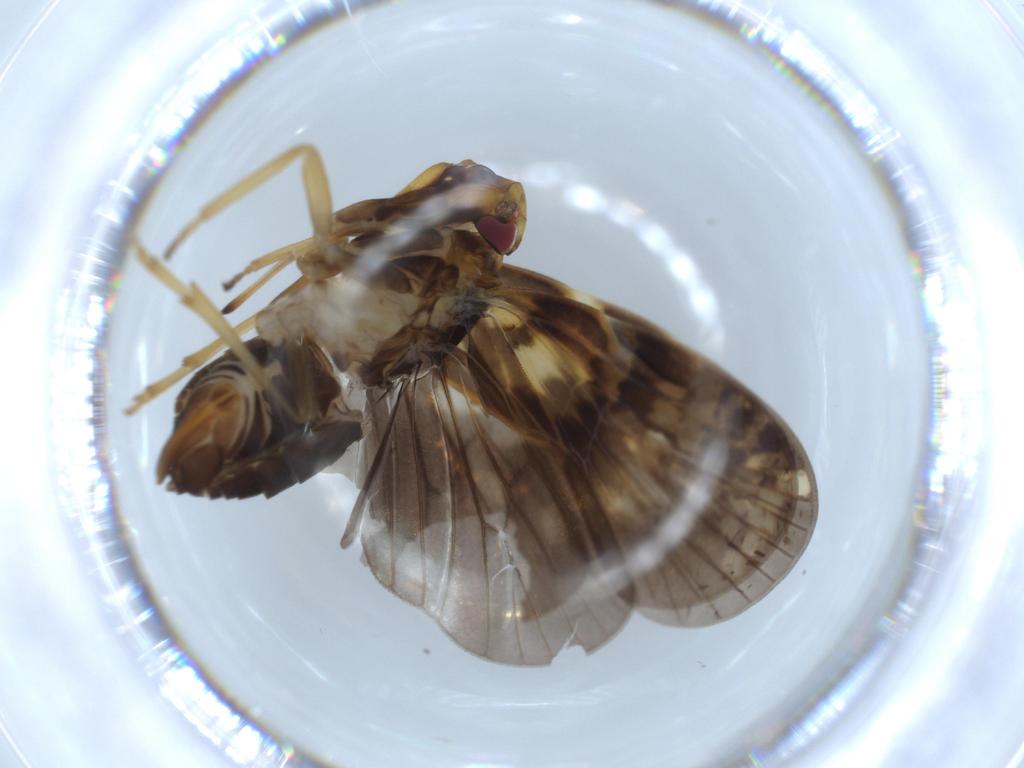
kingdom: Animalia
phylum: Arthropoda
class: Insecta
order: Hemiptera
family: Cixiidae
